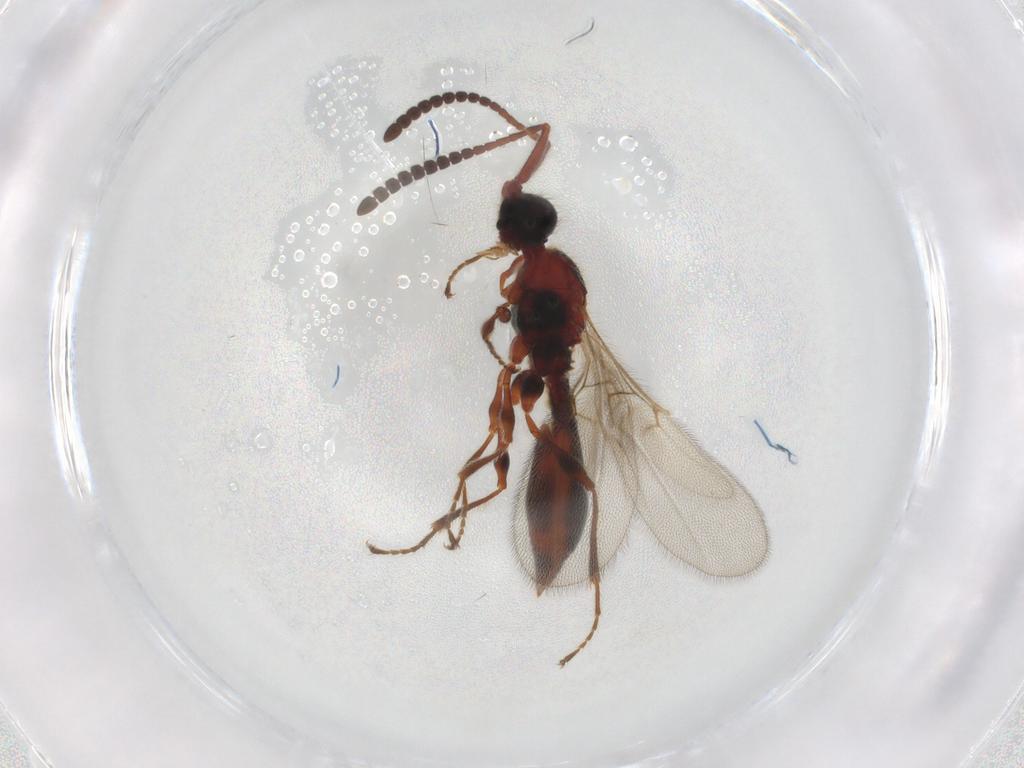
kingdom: Animalia
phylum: Arthropoda
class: Insecta
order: Hymenoptera
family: Diapriidae
